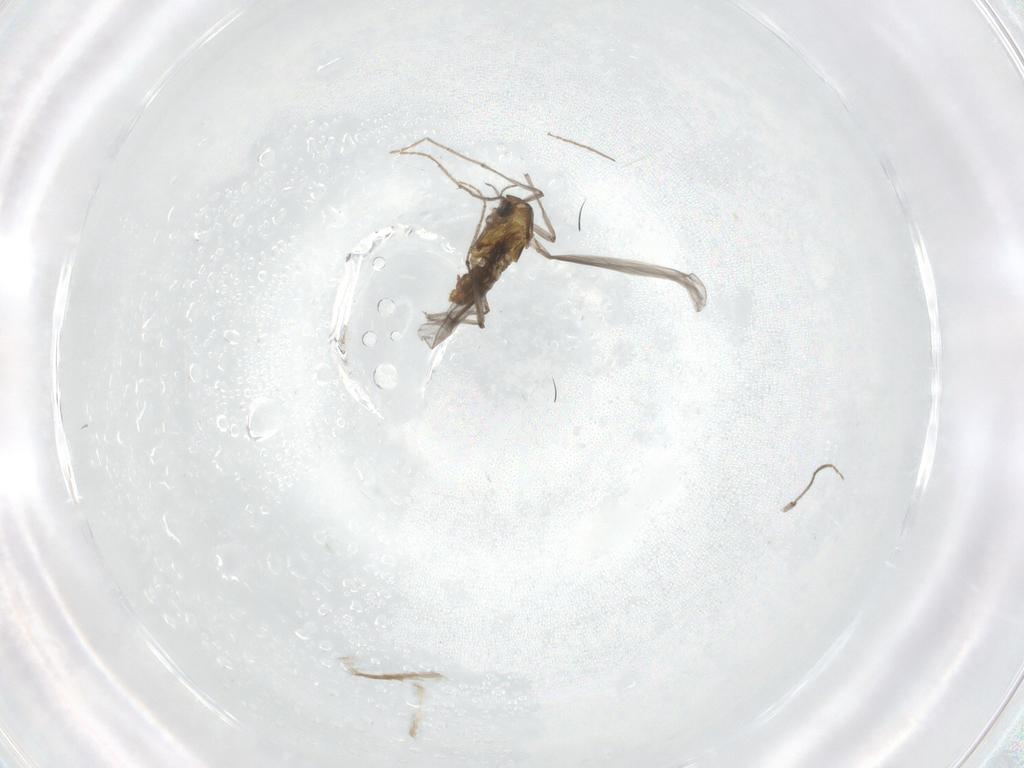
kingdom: Animalia
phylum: Arthropoda
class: Insecta
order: Diptera
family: Chironomidae
